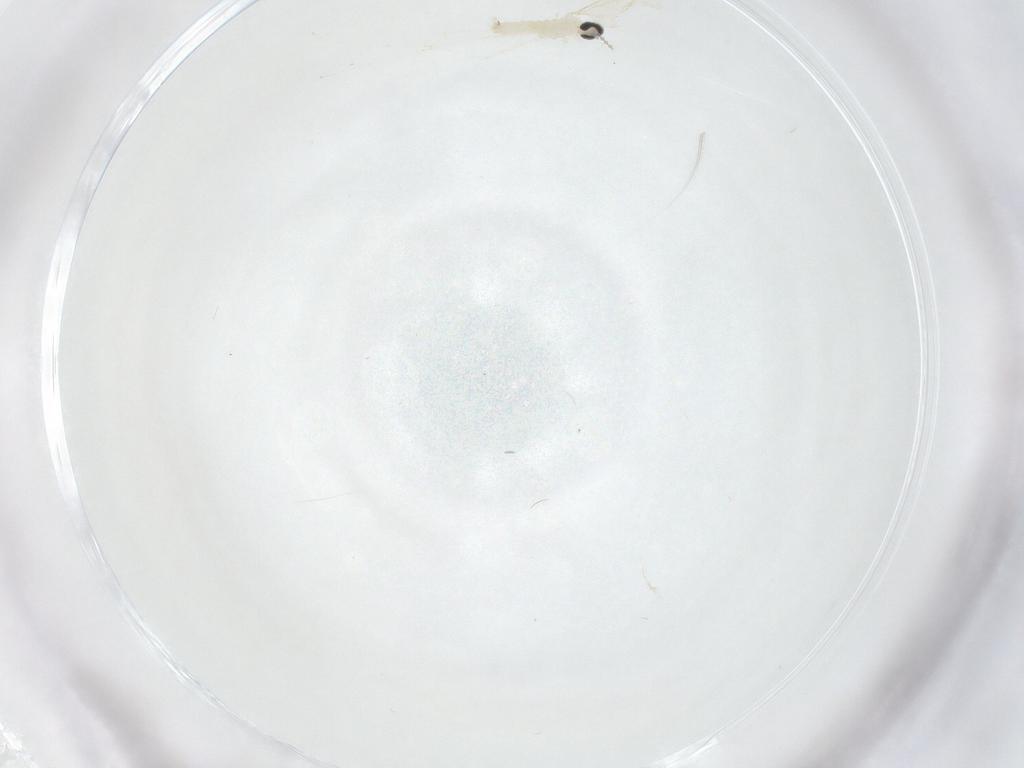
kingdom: Animalia
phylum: Arthropoda
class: Insecta
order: Diptera
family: Cecidomyiidae
